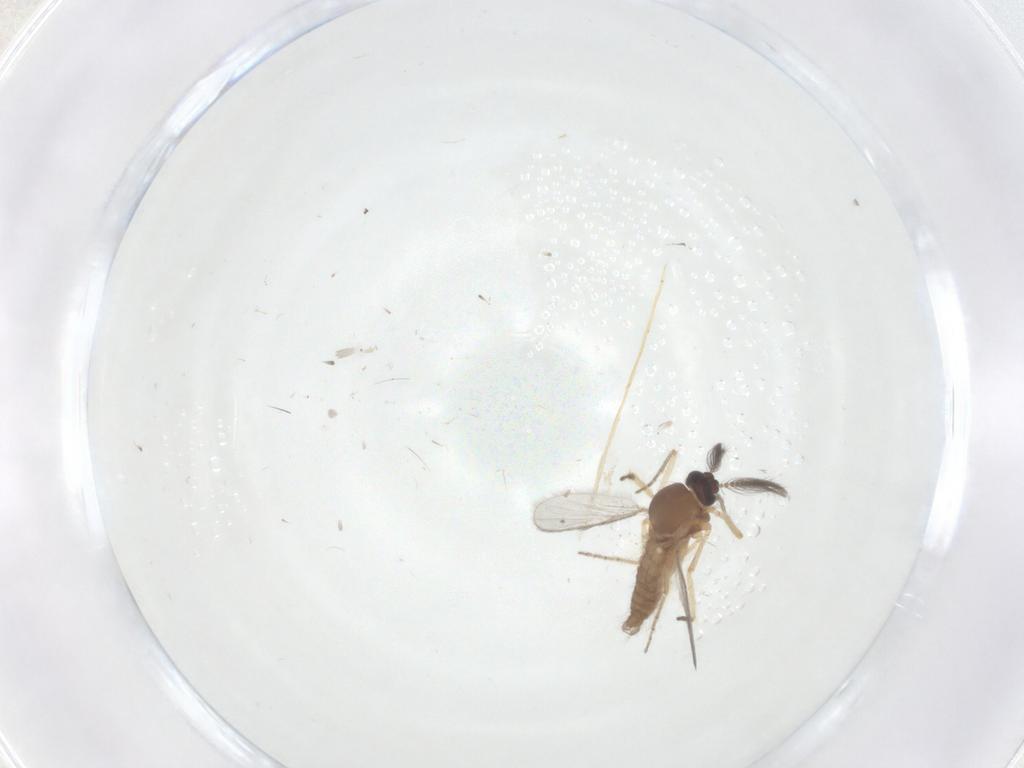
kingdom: Animalia
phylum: Arthropoda
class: Insecta
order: Diptera
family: Ceratopogonidae
